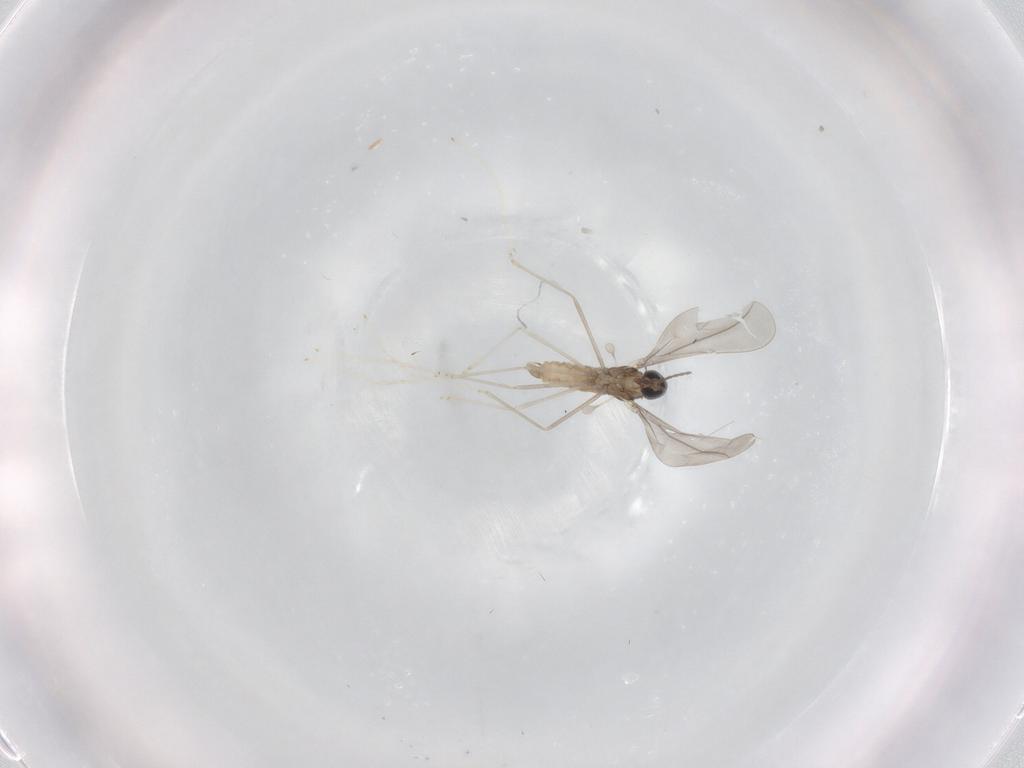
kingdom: Animalia
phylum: Arthropoda
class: Insecta
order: Diptera
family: Cecidomyiidae
